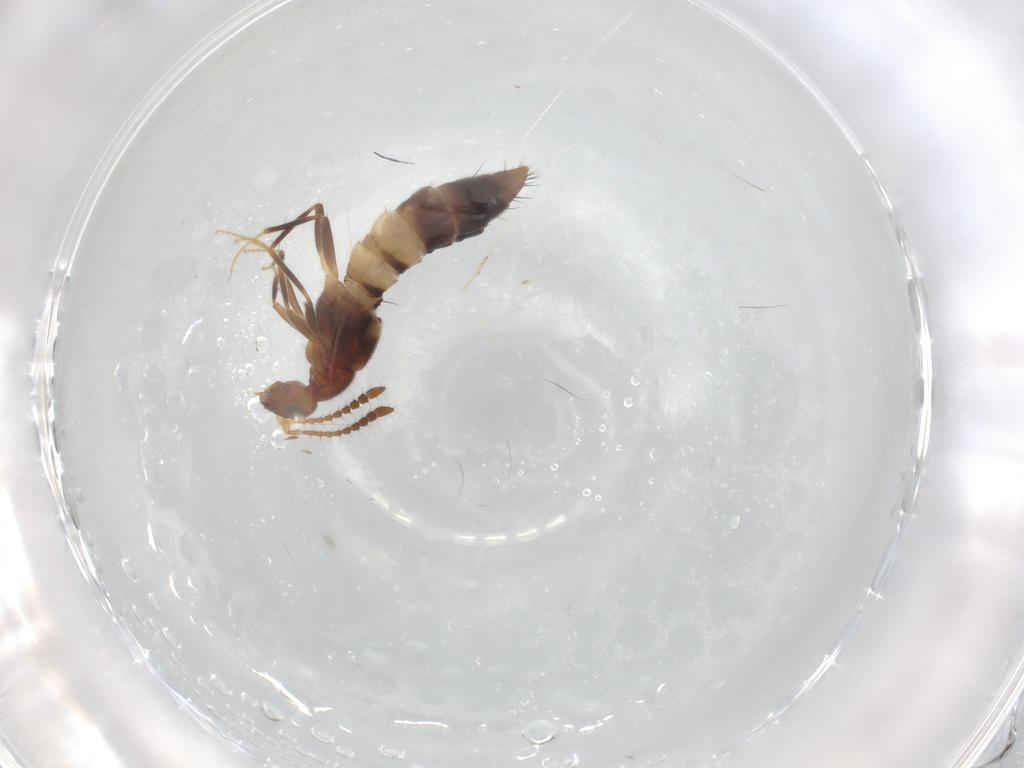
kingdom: Animalia
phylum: Arthropoda
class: Insecta
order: Coleoptera
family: Staphylinidae
